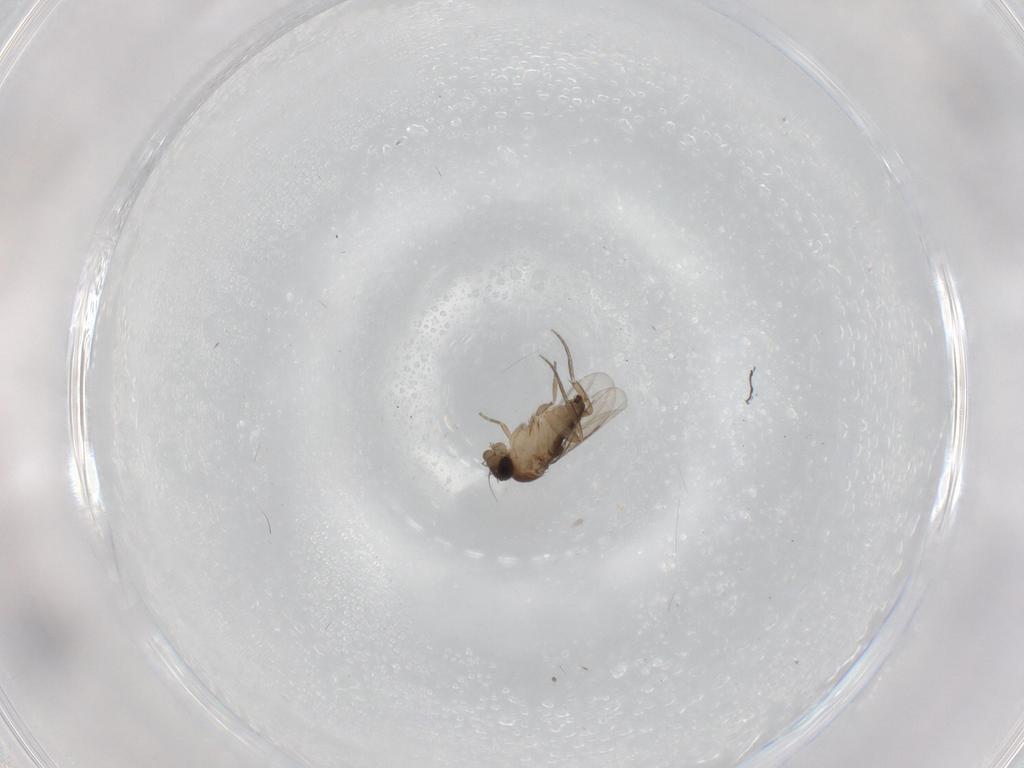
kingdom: Animalia
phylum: Arthropoda
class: Insecta
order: Diptera
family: Phoridae
